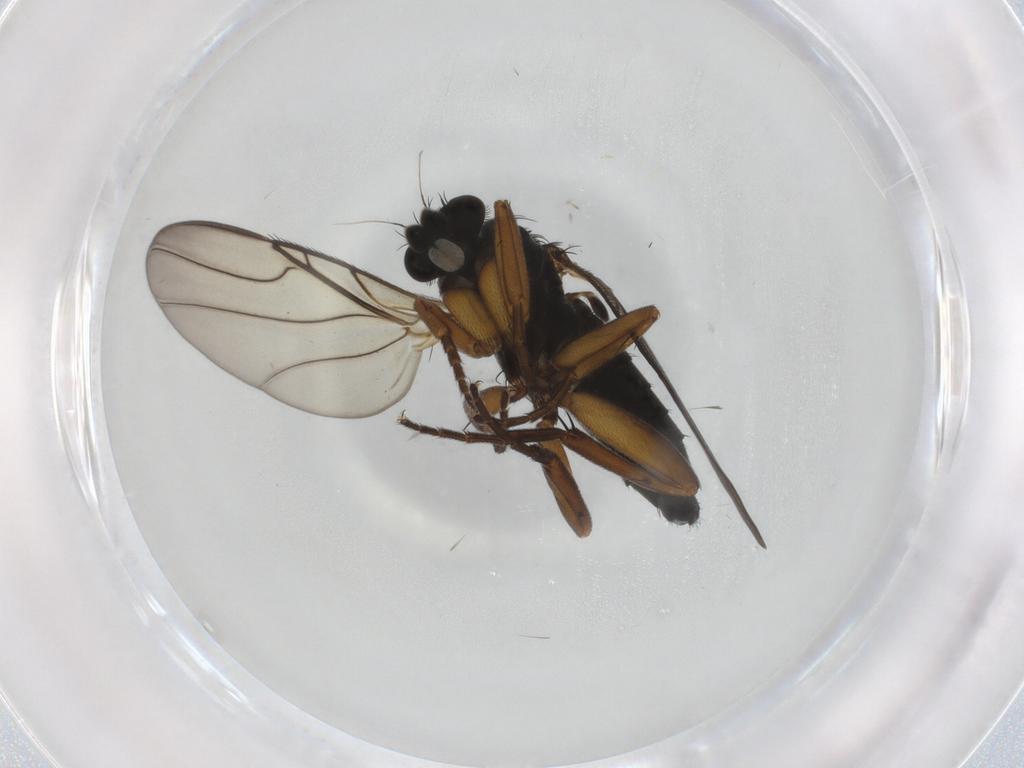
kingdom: Animalia
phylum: Arthropoda
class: Insecta
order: Diptera
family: Phoridae
